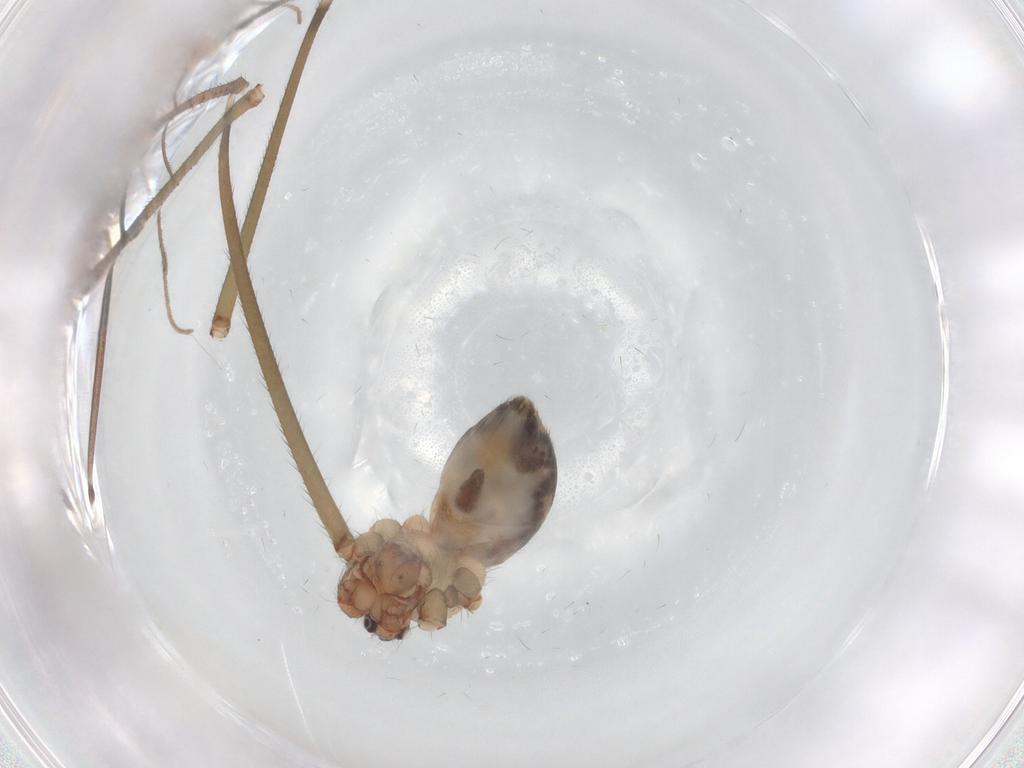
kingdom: Animalia
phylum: Arthropoda
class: Arachnida
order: Araneae
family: Pholcidae
